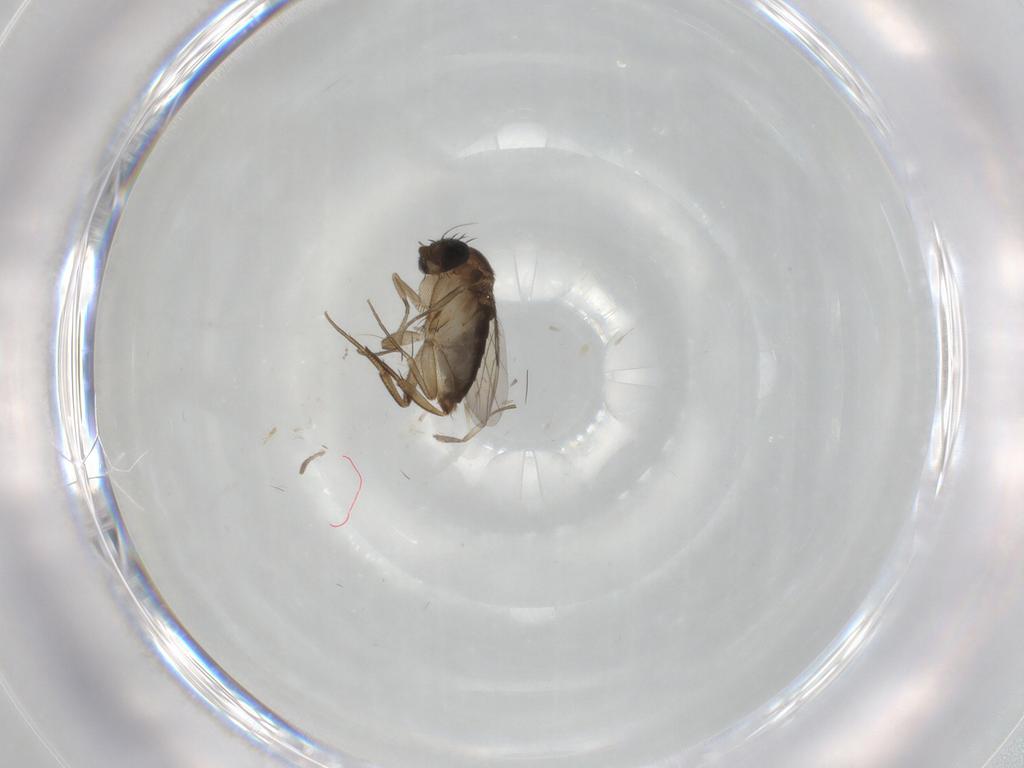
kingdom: Animalia
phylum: Arthropoda
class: Insecta
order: Diptera
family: Phoridae
